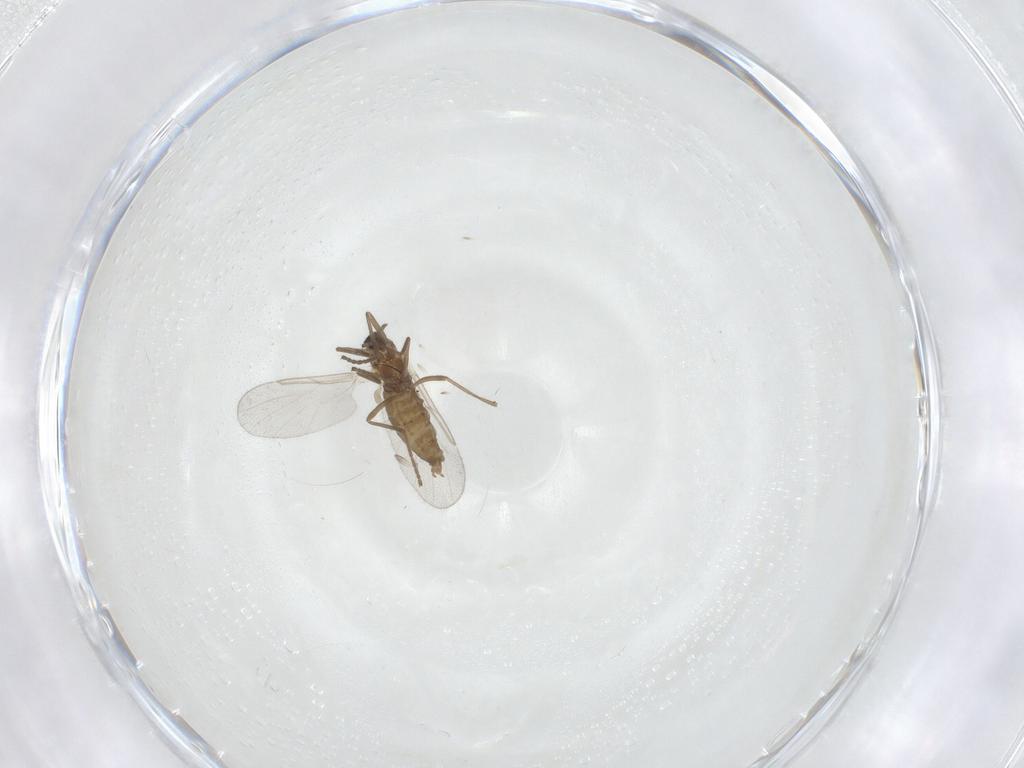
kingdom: Animalia
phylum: Arthropoda
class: Insecta
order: Diptera
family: Cecidomyiidae
